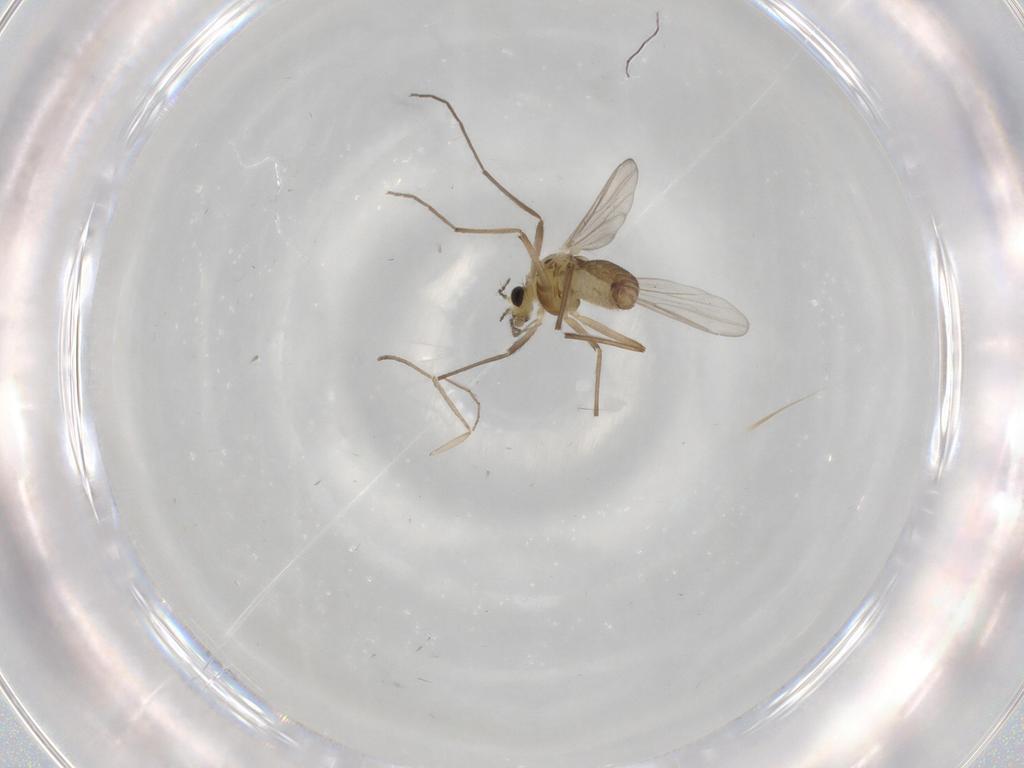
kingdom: Animalia
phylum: Arthropoda
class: Insecta
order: Diptera
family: Chironomidae
